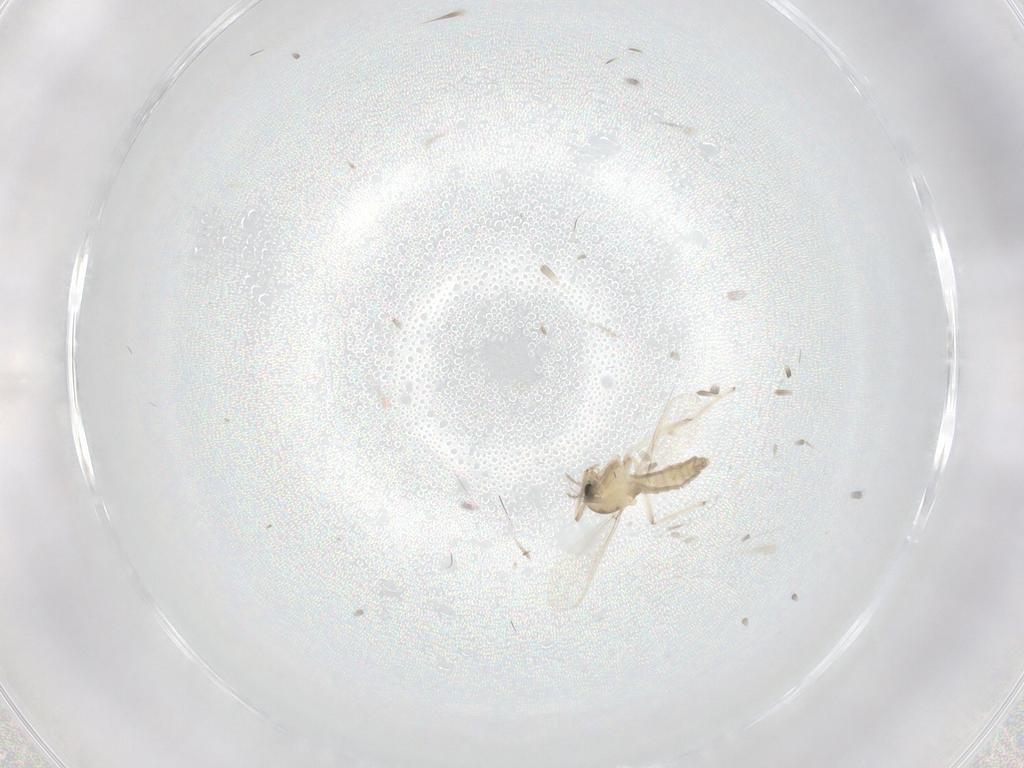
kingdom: Animalia
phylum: Arthropoda
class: Insecta
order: Diptera
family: Chironomidae
